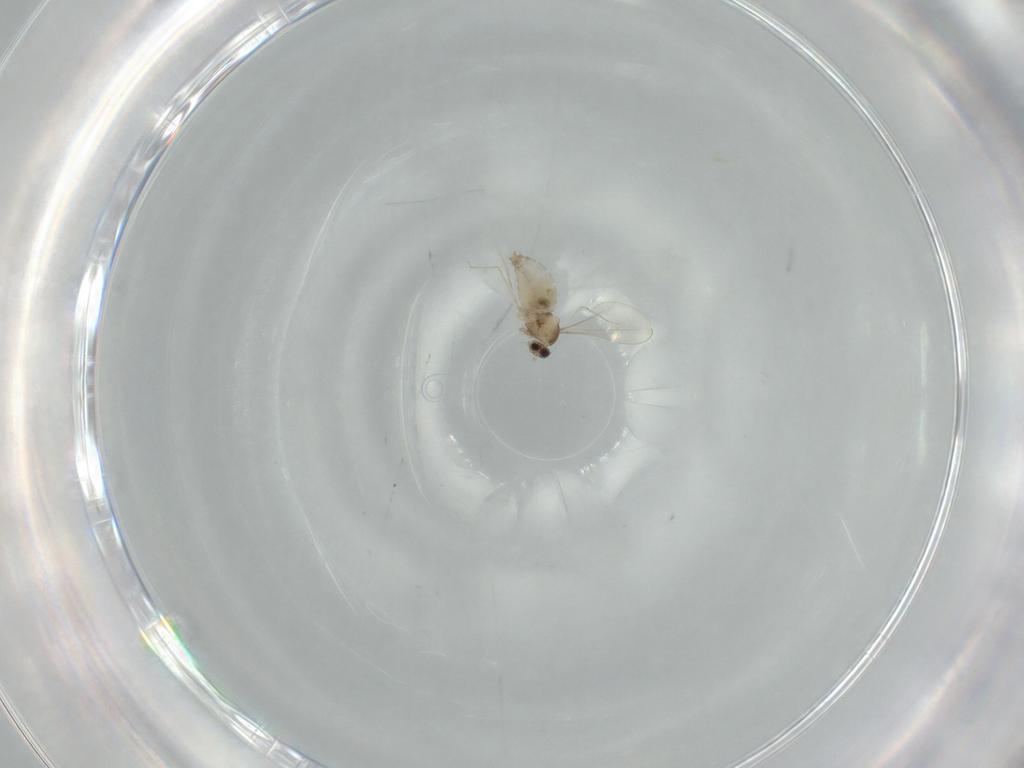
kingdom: Animalia
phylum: Arthropoda
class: Insecta
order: Diptera
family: Cecidomyiidae
